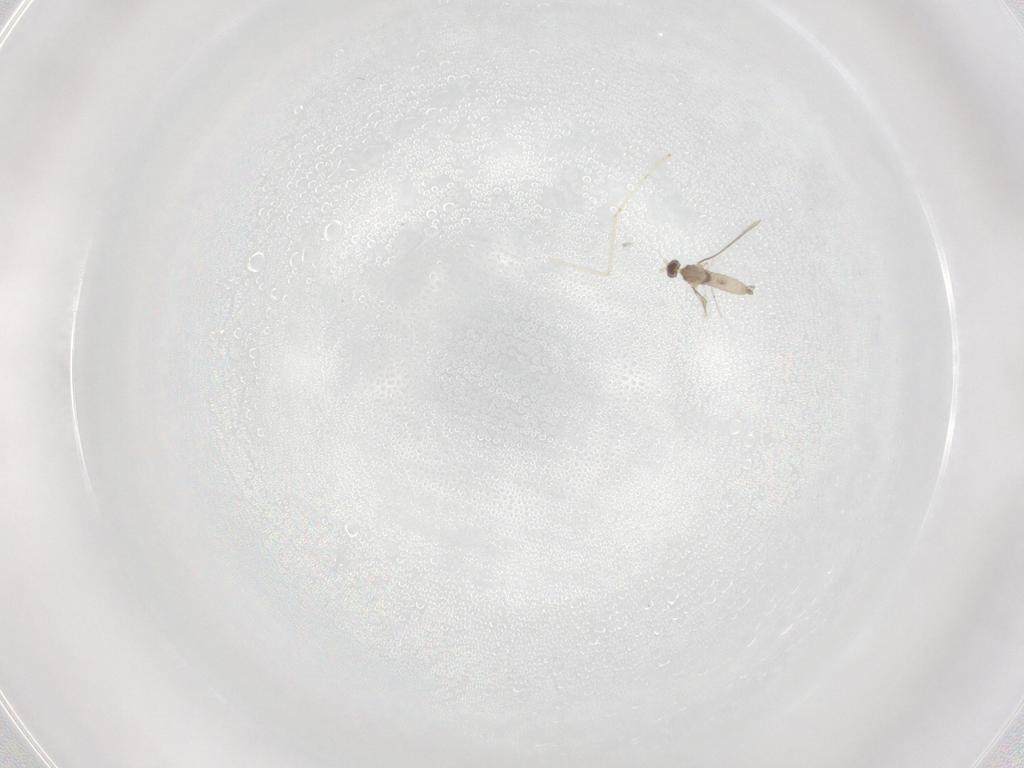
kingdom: Animalia
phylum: Arthropoda
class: Insecta
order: Diptera
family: Cecidomyiidae
